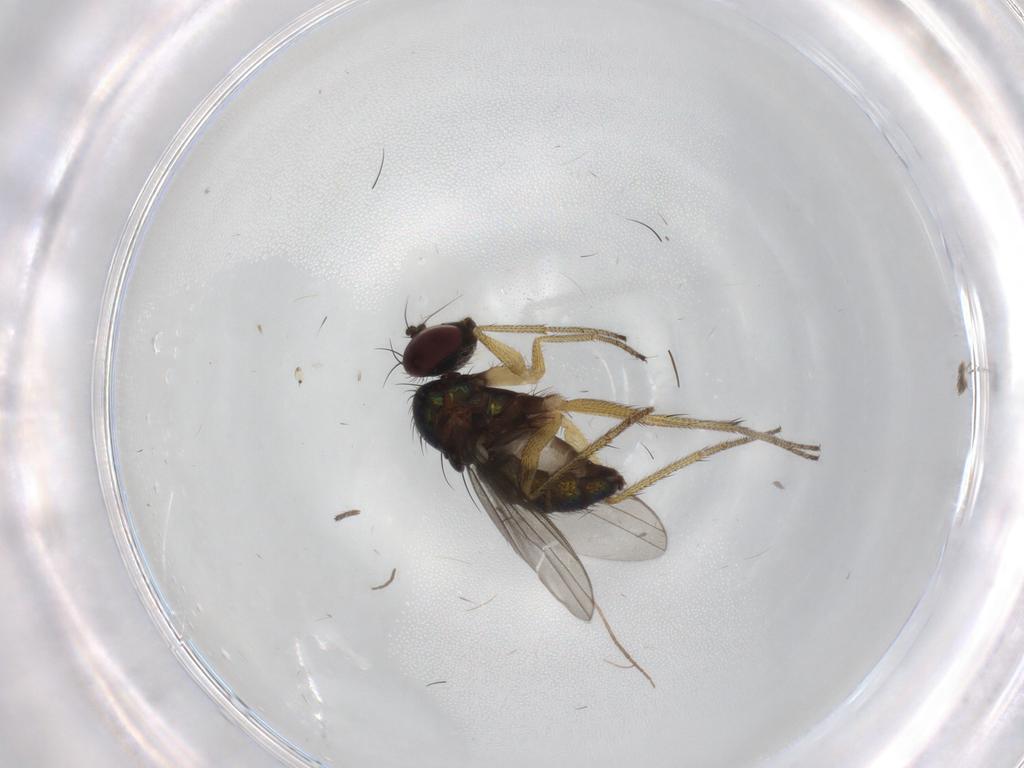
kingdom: Animalia
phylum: Arthropoda
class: Insecta
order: Diptera
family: Dolichopodidae
